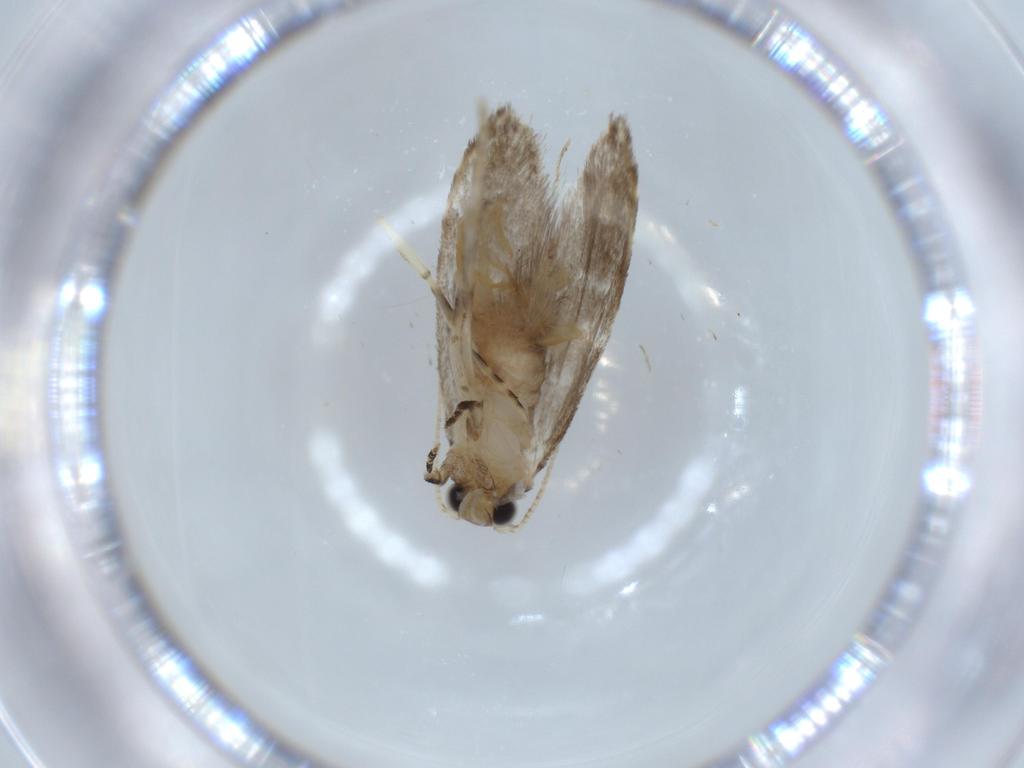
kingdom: Animalia
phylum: Arthropoda
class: Insecta
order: Lepidoptera
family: Tineidae
